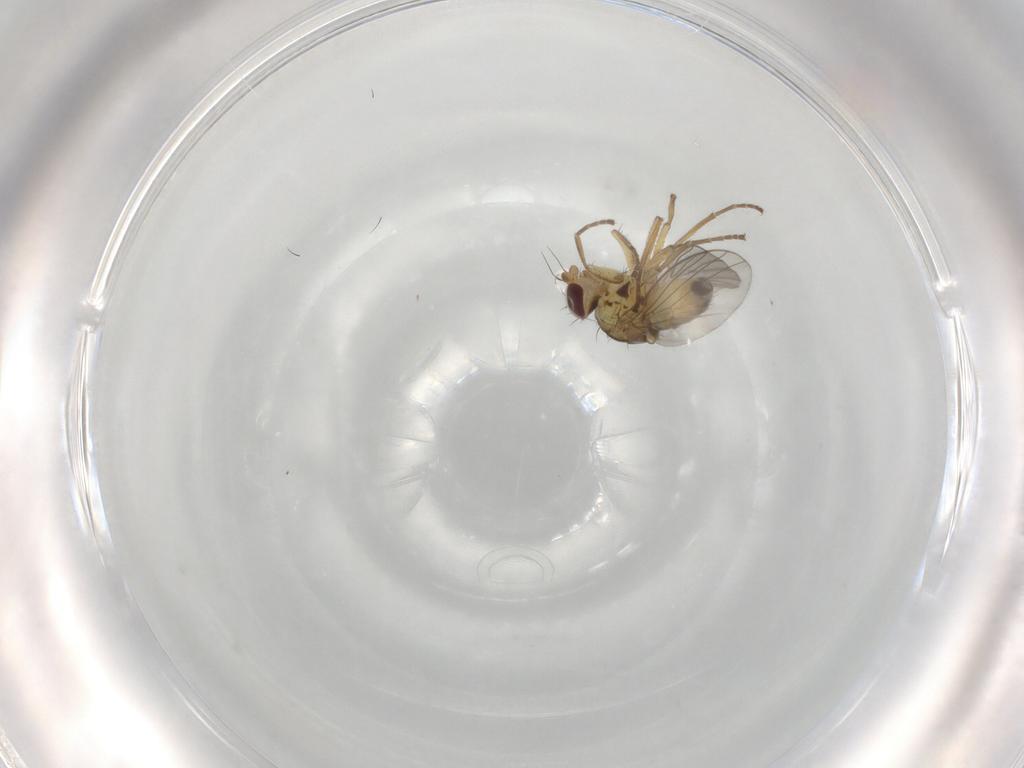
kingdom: Animalia
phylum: Arthropoda
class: Insecta
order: Diptera
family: Agromyzidae
